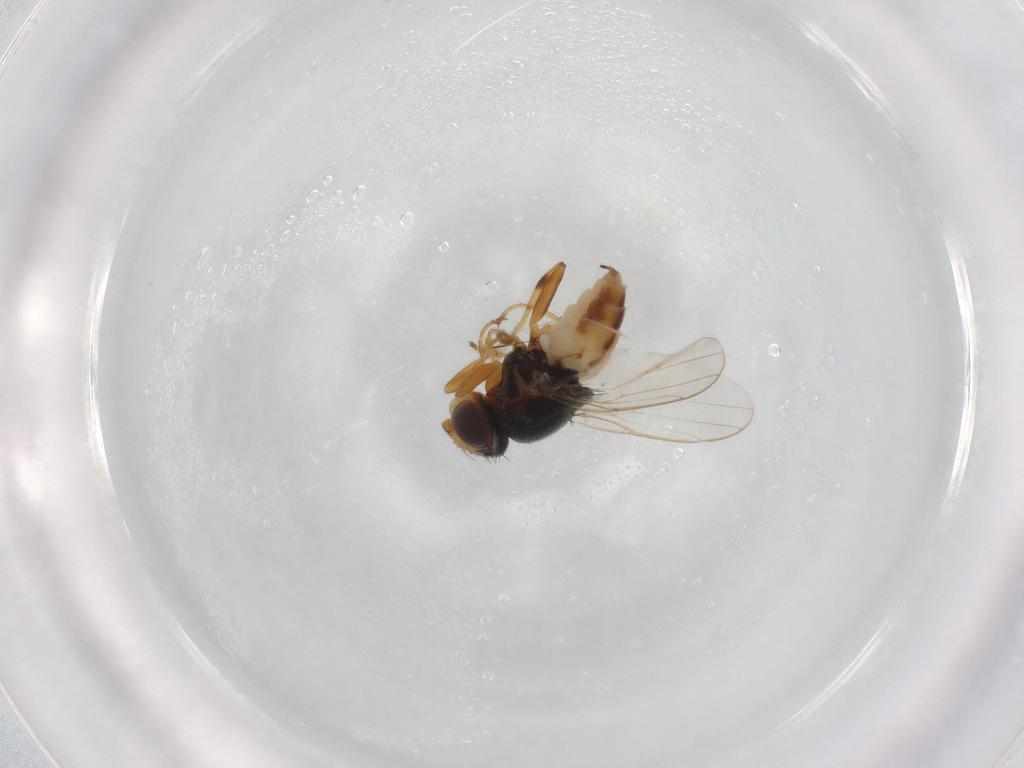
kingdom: Animalia
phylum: Arthropoda
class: Insecta
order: Diptera
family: Chloropidae
